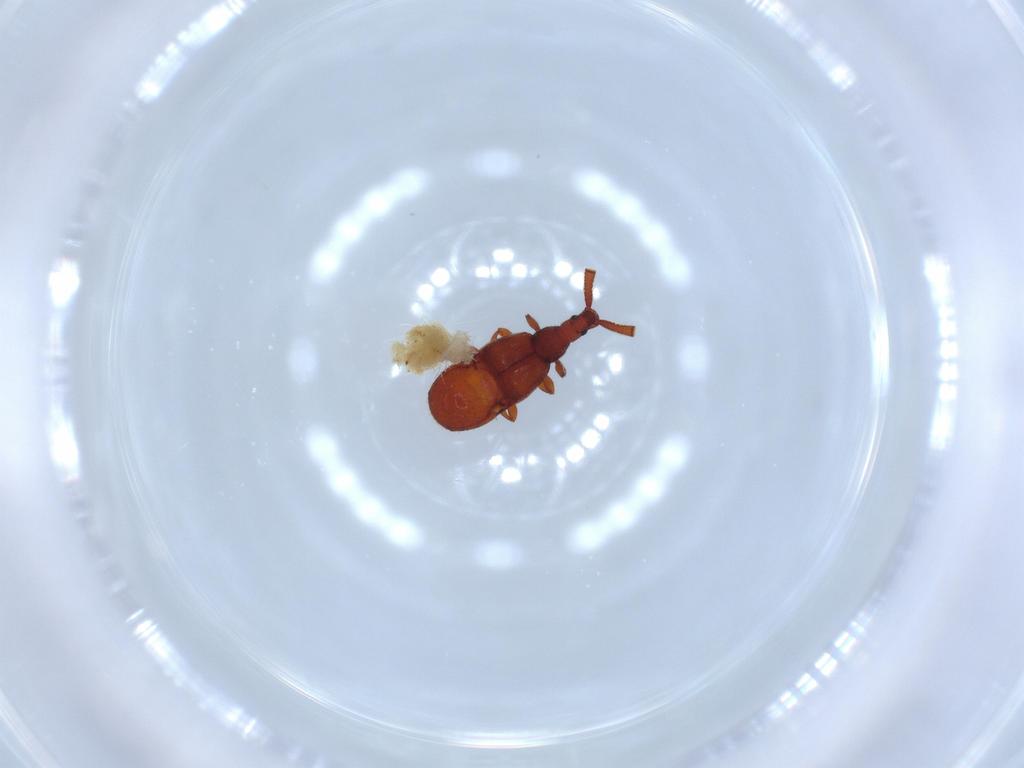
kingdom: Animalia
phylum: Arthropoda
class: Insecta
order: Coleoptera
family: Staphylinidae
